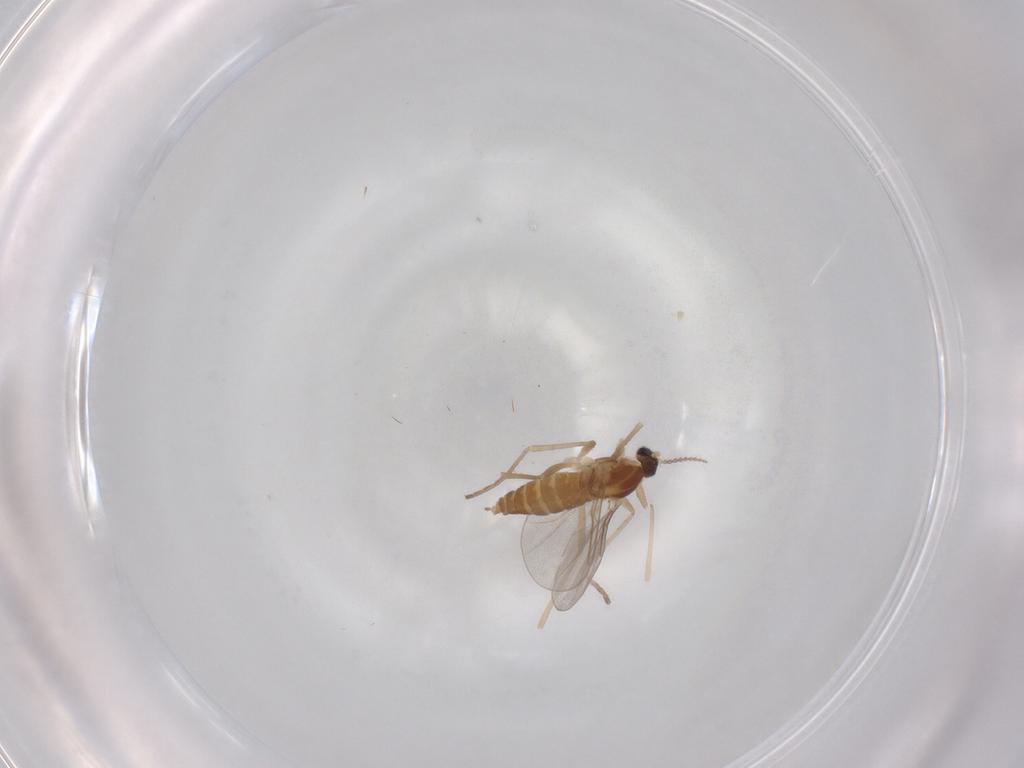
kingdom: Animalia
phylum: Arthropoda
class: Insecta
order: Diptera
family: Cecidomyiidae
